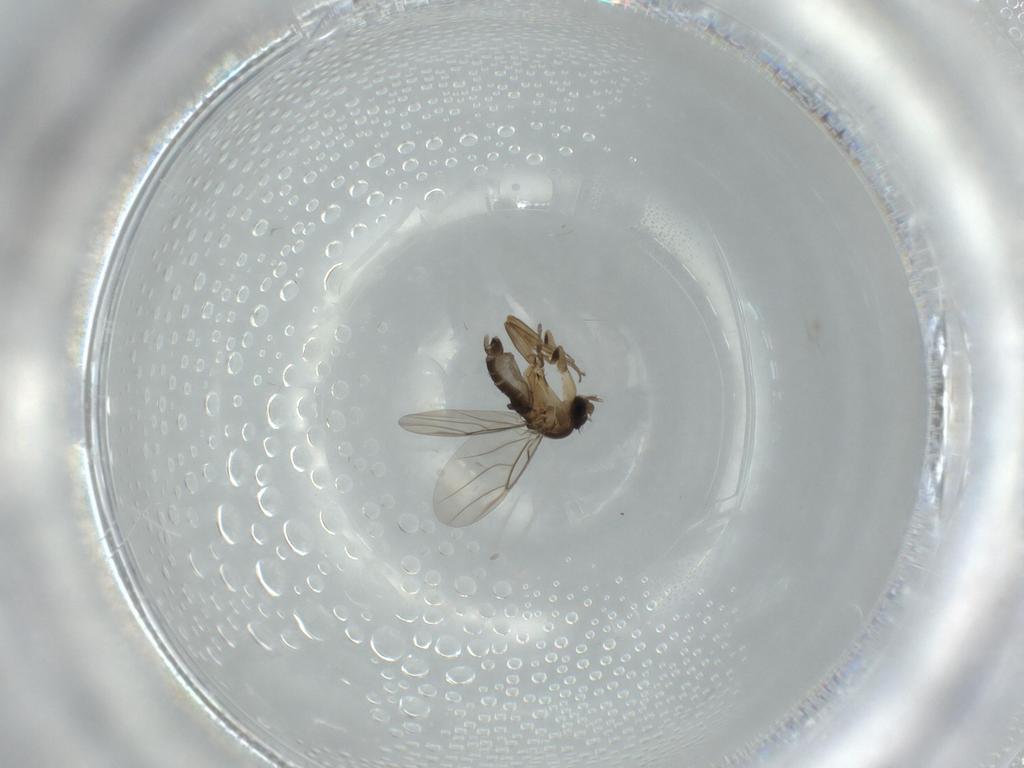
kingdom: Animalia
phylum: Arthropoda
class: Insecta
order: Diptera
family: Phoridae
